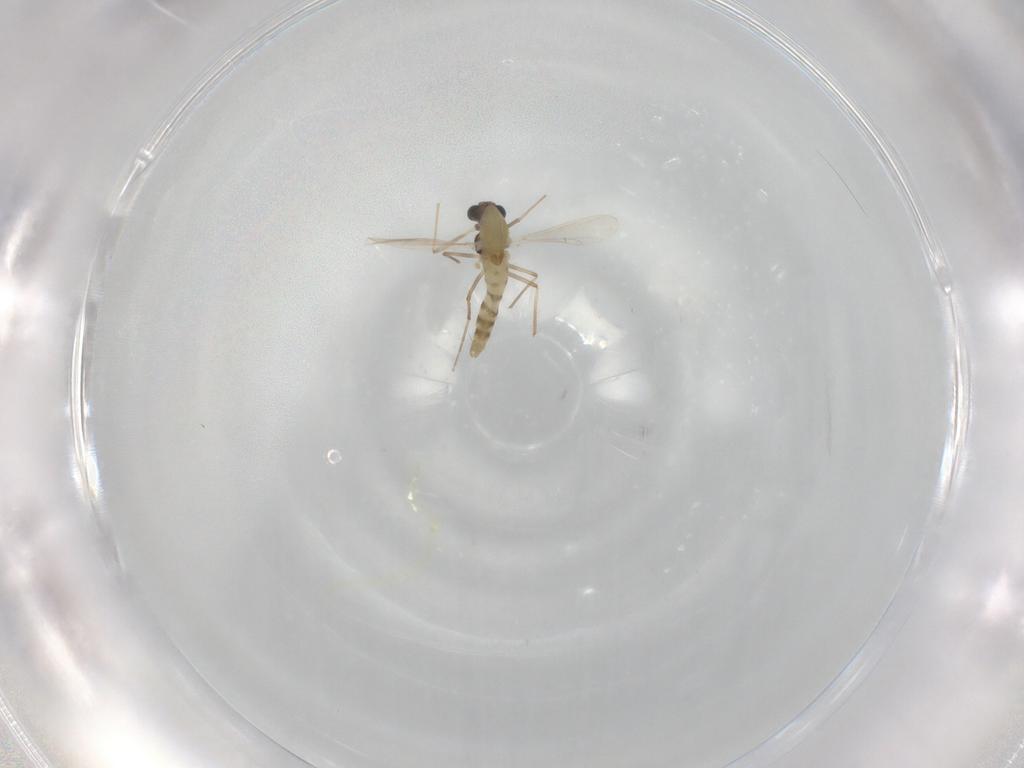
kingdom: Animalia
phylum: Arthropoda
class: Insecta
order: Diptera
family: Chironomidae
